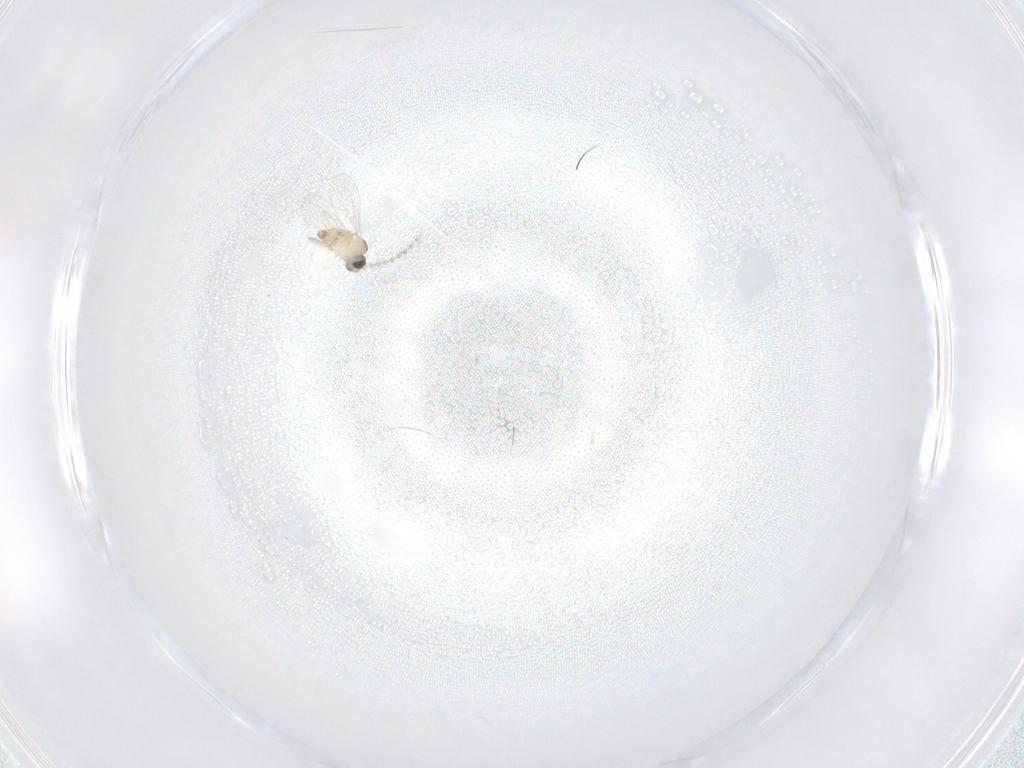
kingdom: Animalia
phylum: Arthropoda
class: Insecta
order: Diptera
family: Cecidomyiidae
